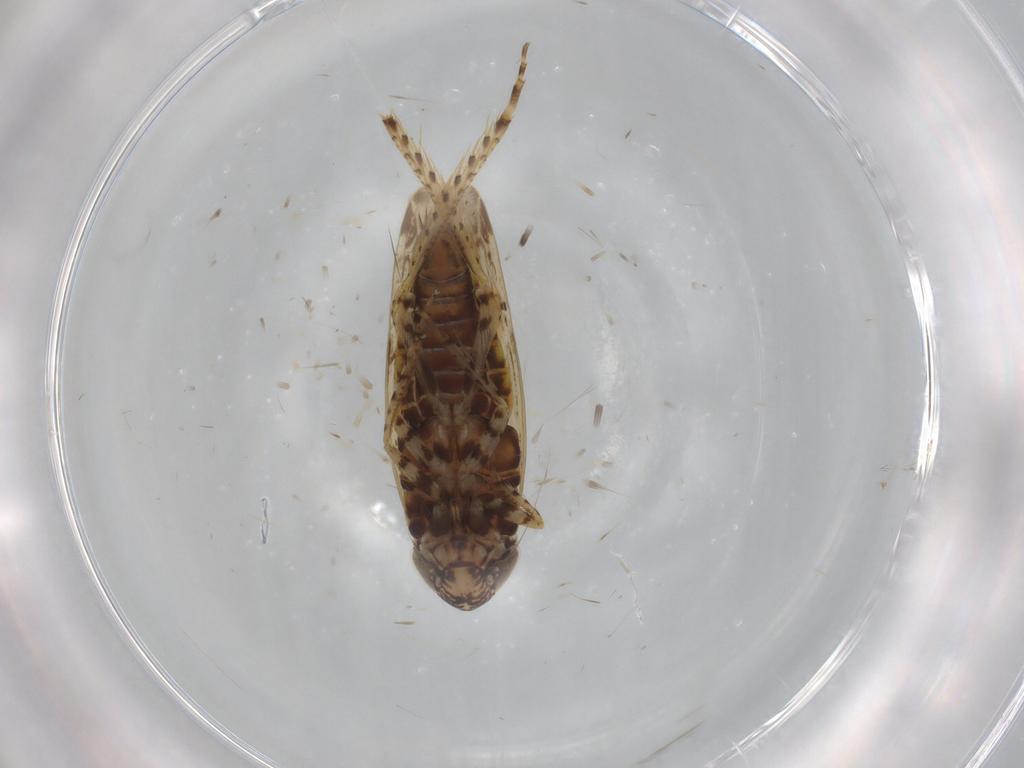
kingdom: Animalia
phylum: Arthropoda
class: Insecta
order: Hemiptera
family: Cicadellidae
